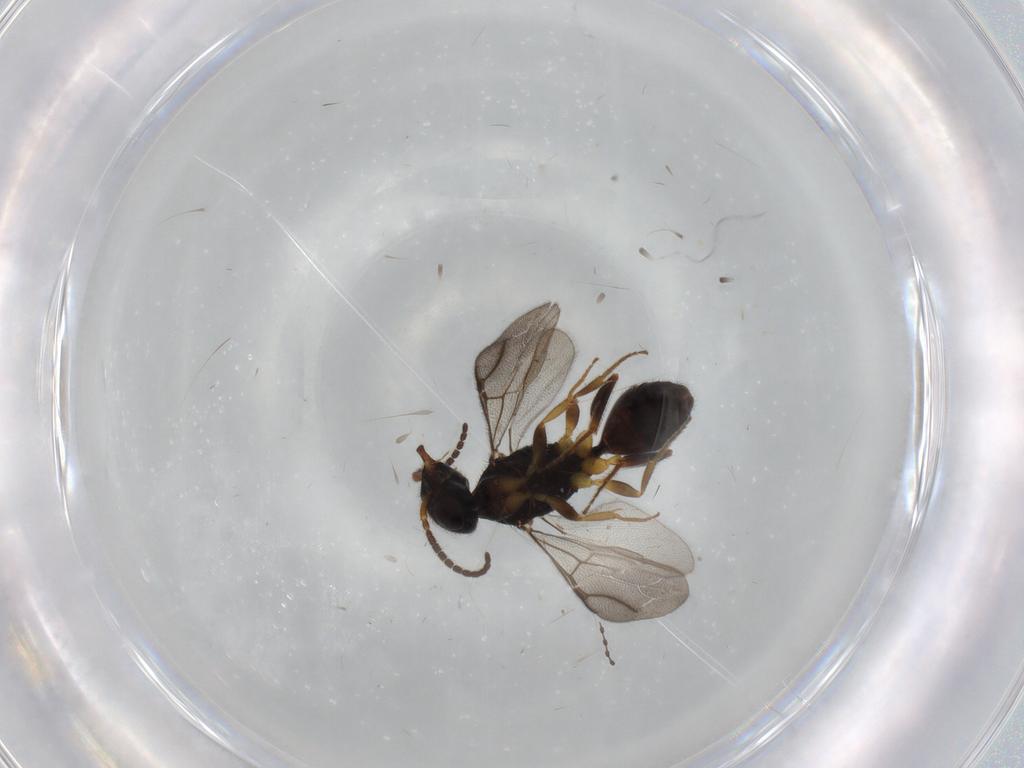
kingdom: Animalia
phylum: Arthropoda
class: Insecta
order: Hymenoptera
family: Bethylidae
